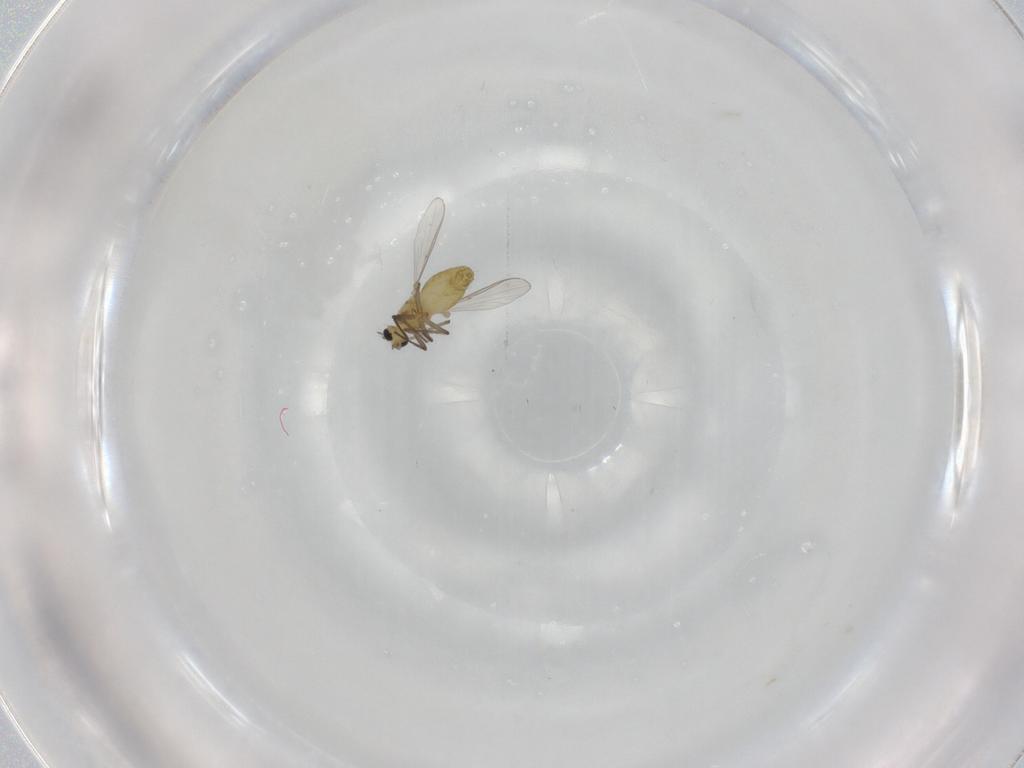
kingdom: Animalia
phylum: Arthropoda
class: Insecta
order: Diptera
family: Chironomidae
